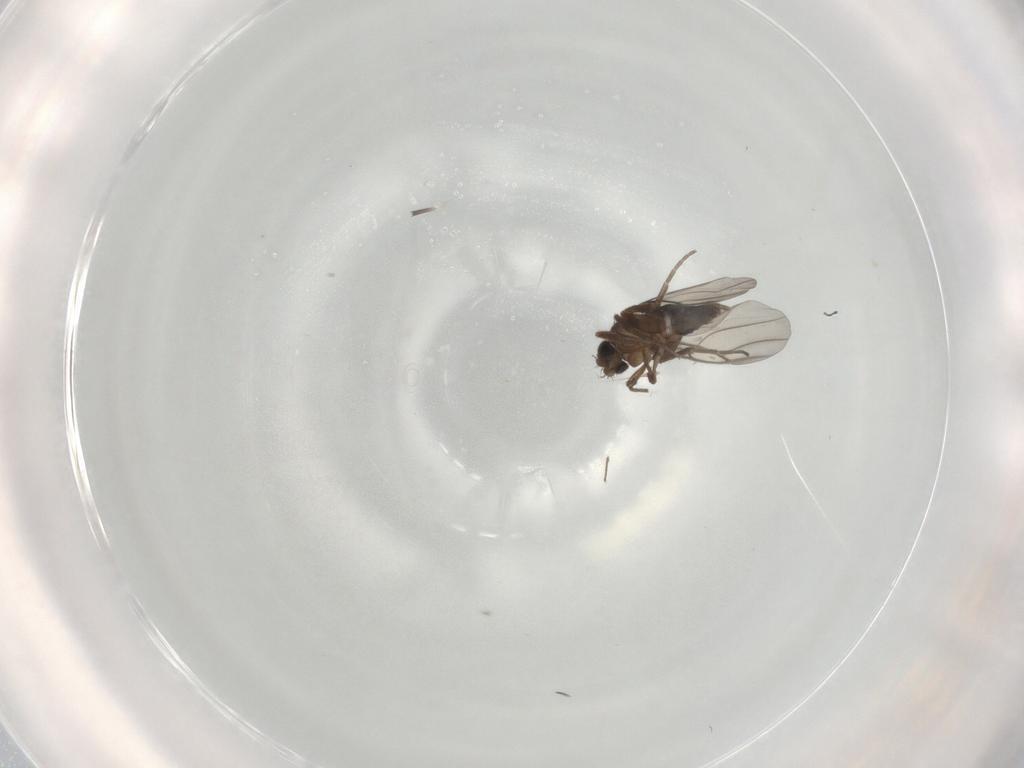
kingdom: Animalia
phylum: Arthropoda
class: Insecta
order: Diptera
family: Phoridae
